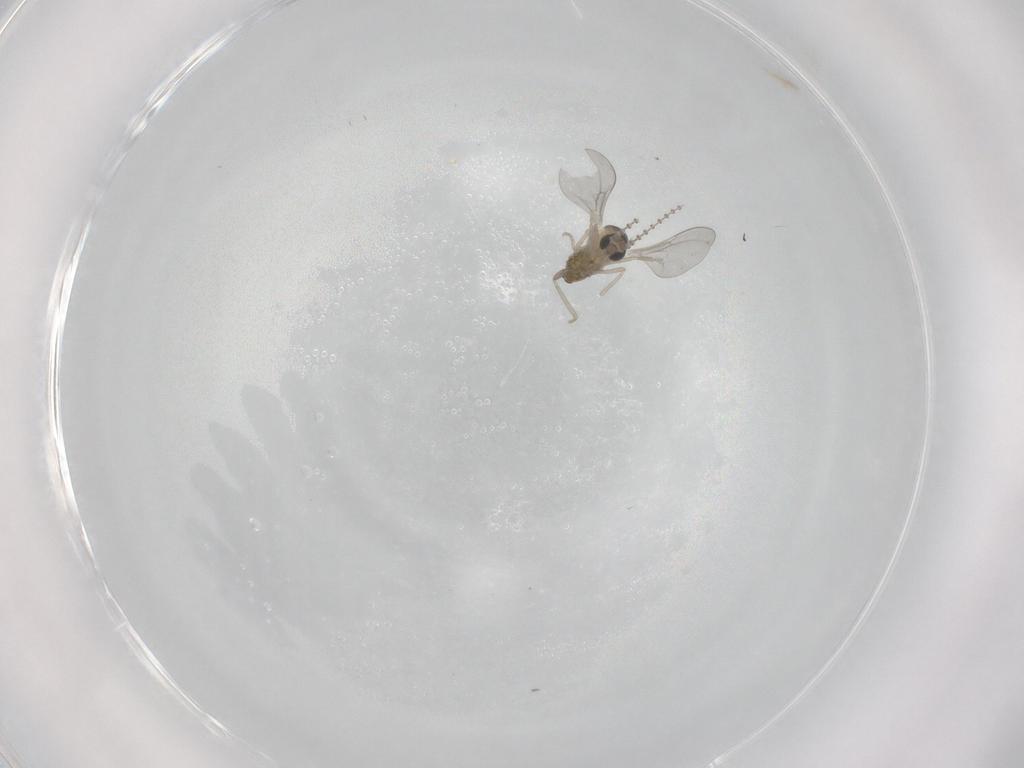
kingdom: Animalia
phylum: Arthropoda
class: Insecta
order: Diptera
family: Cecidomyiidae
